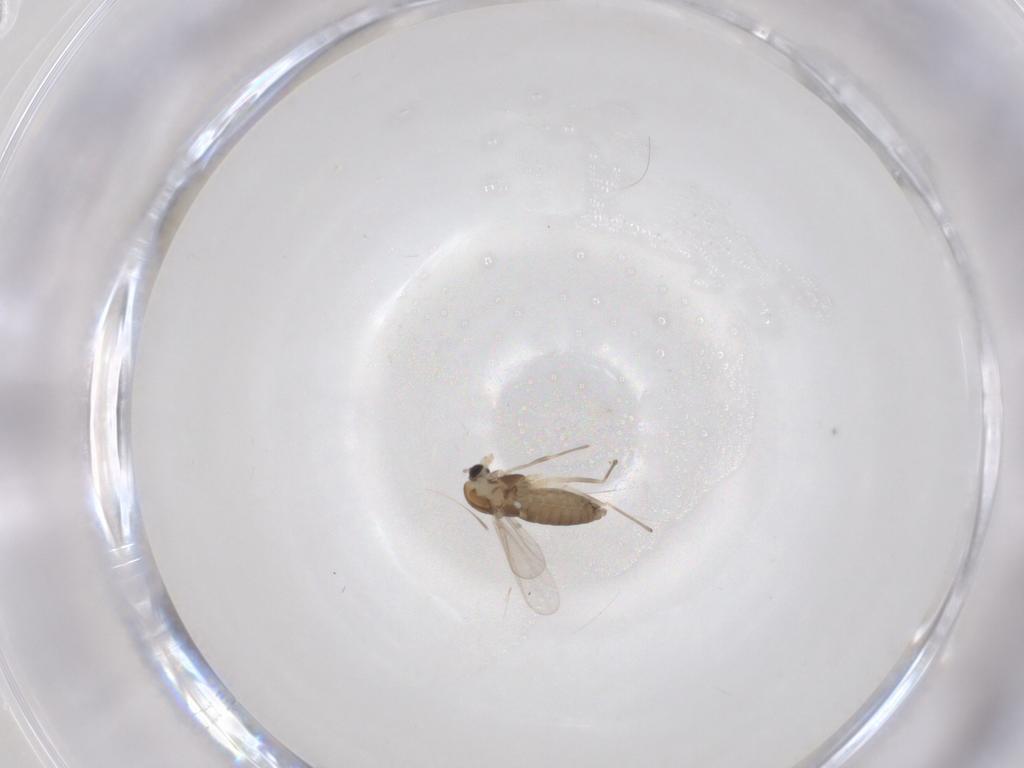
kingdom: Animalia
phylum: Arthropoda
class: Insecta
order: Diptera
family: Chironomidae
